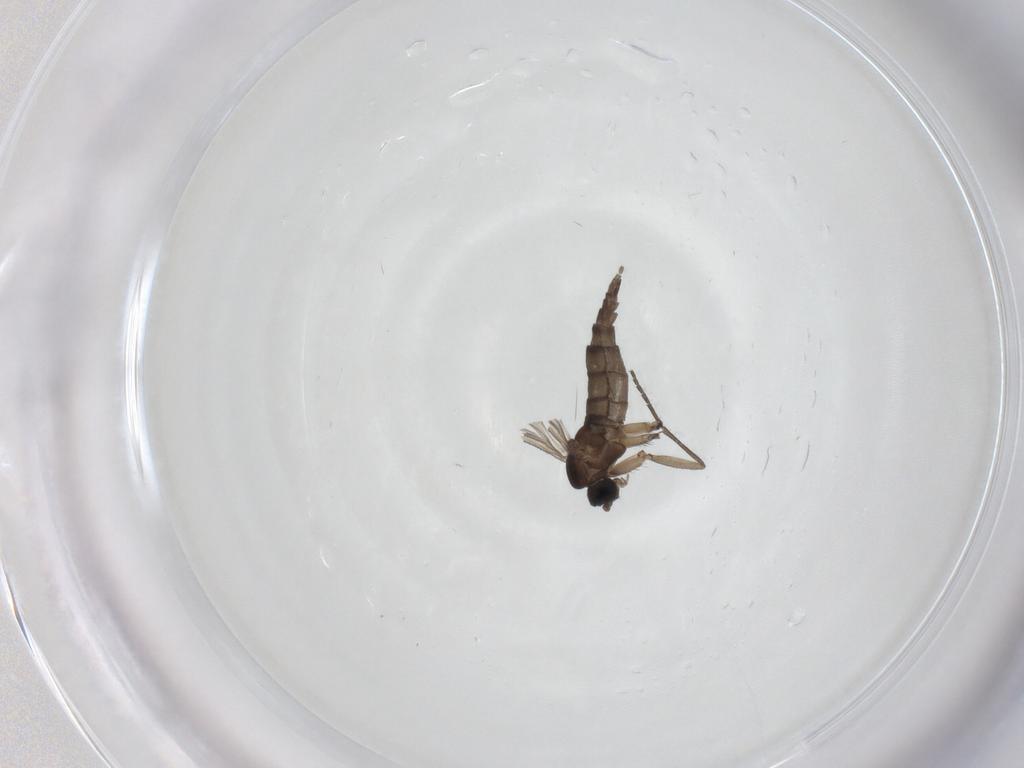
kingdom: Animalia
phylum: Arthropoda
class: Insecta
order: Diptera
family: Sciaridae
